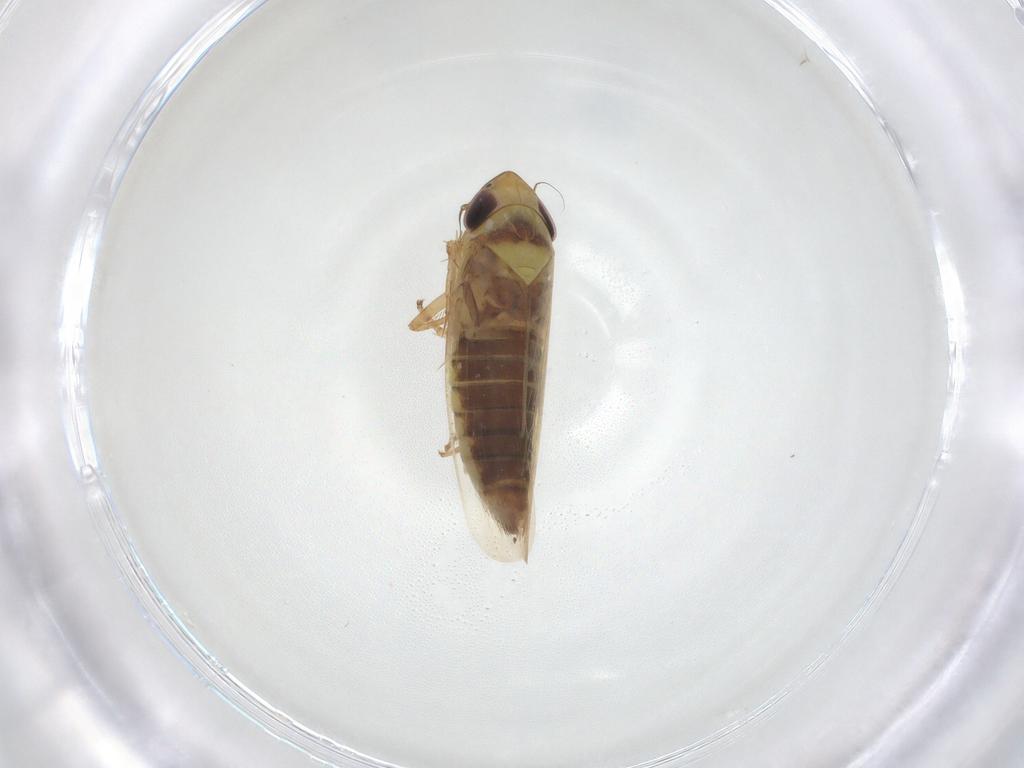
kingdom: Animalia
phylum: Arthropoda
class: Insecta
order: Hemiptera
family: Cicadellidae
